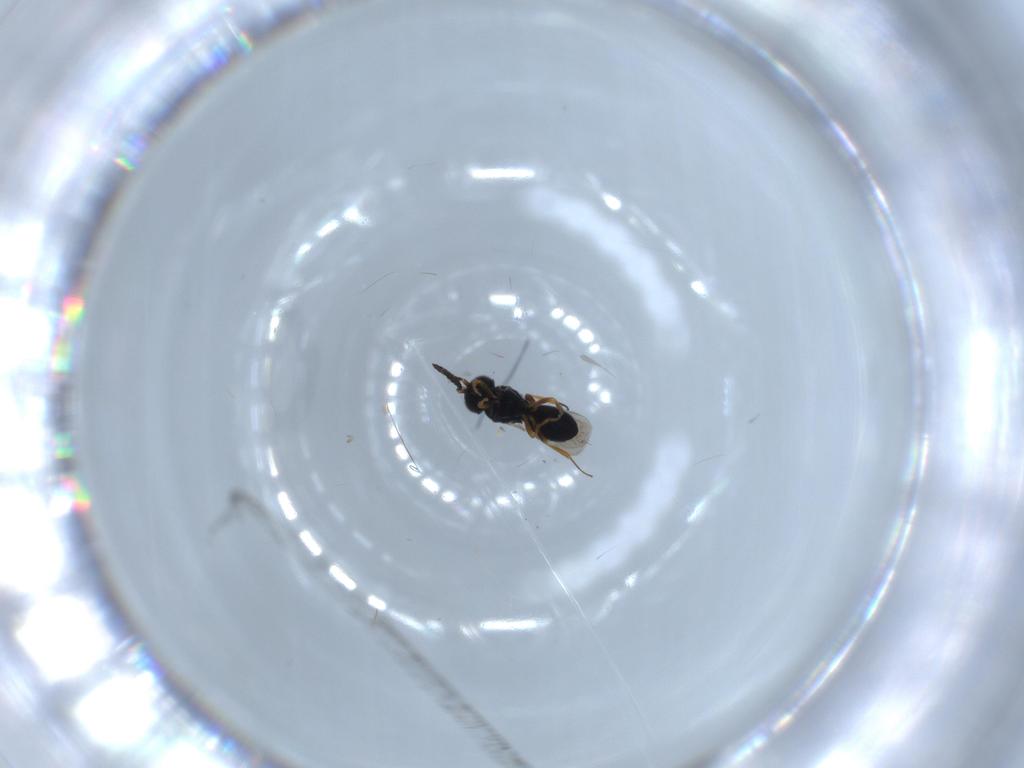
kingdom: Animalia
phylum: Arthropoda
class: Insecta
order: Hymenoptera
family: Scelionidae
